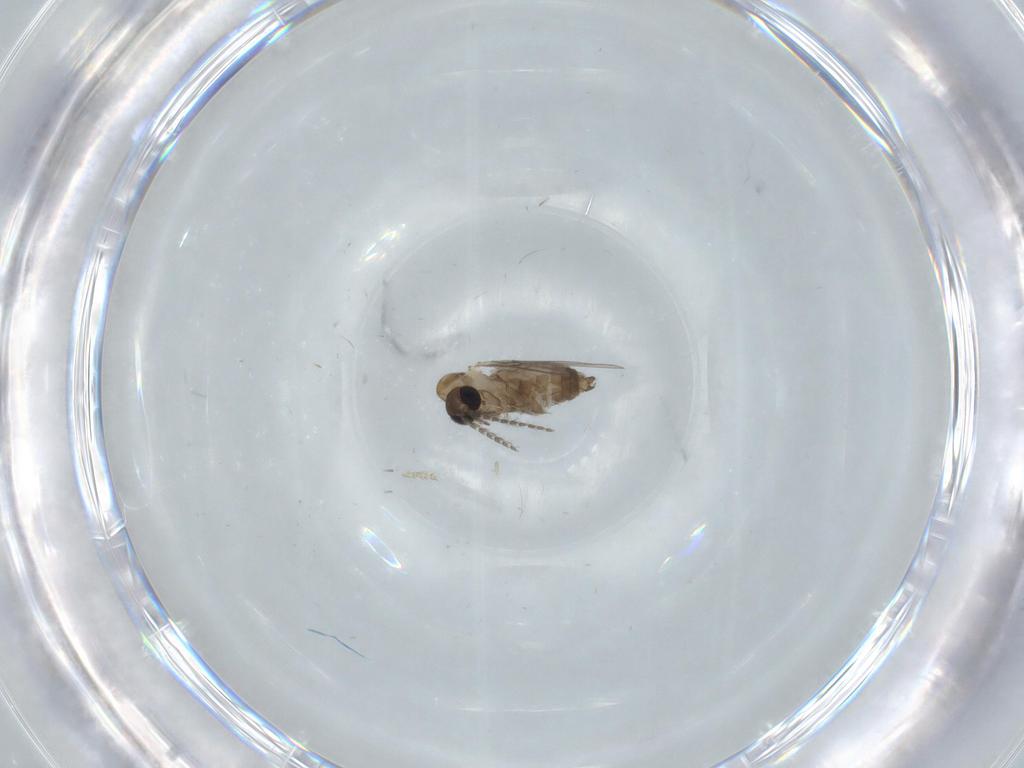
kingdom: Animalia
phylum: Arthropoda
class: Insecta
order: Diptera
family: Psychodidae
